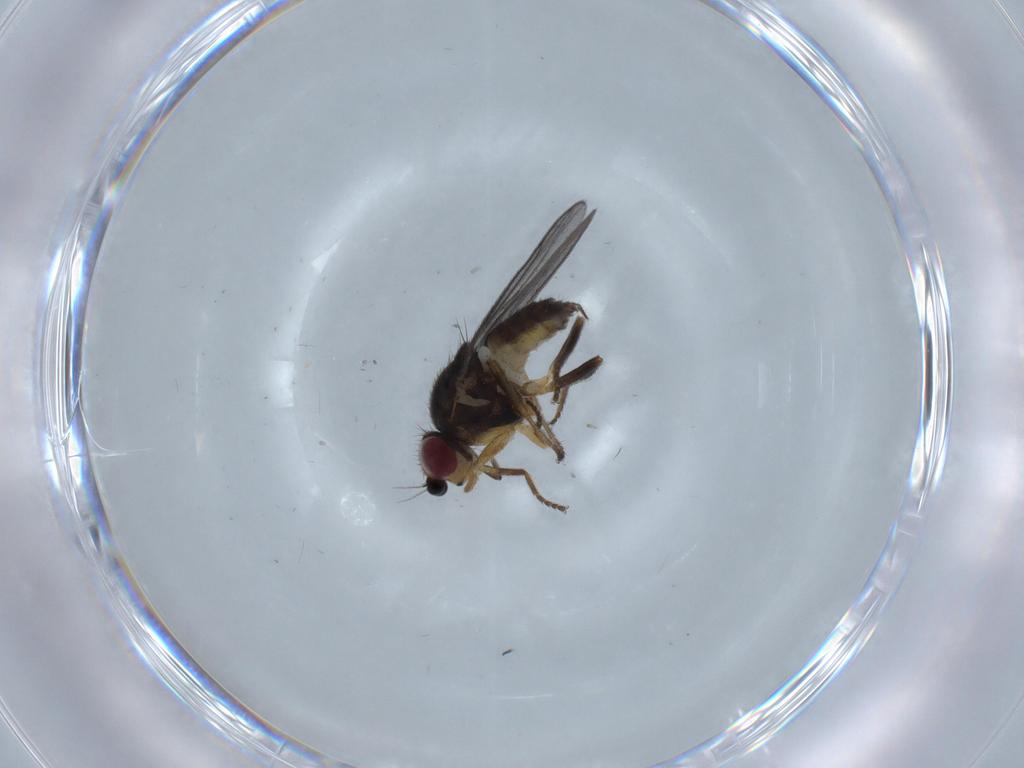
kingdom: Animalia
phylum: Arthropoda
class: Insecta
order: Diptera
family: Chloropidae
